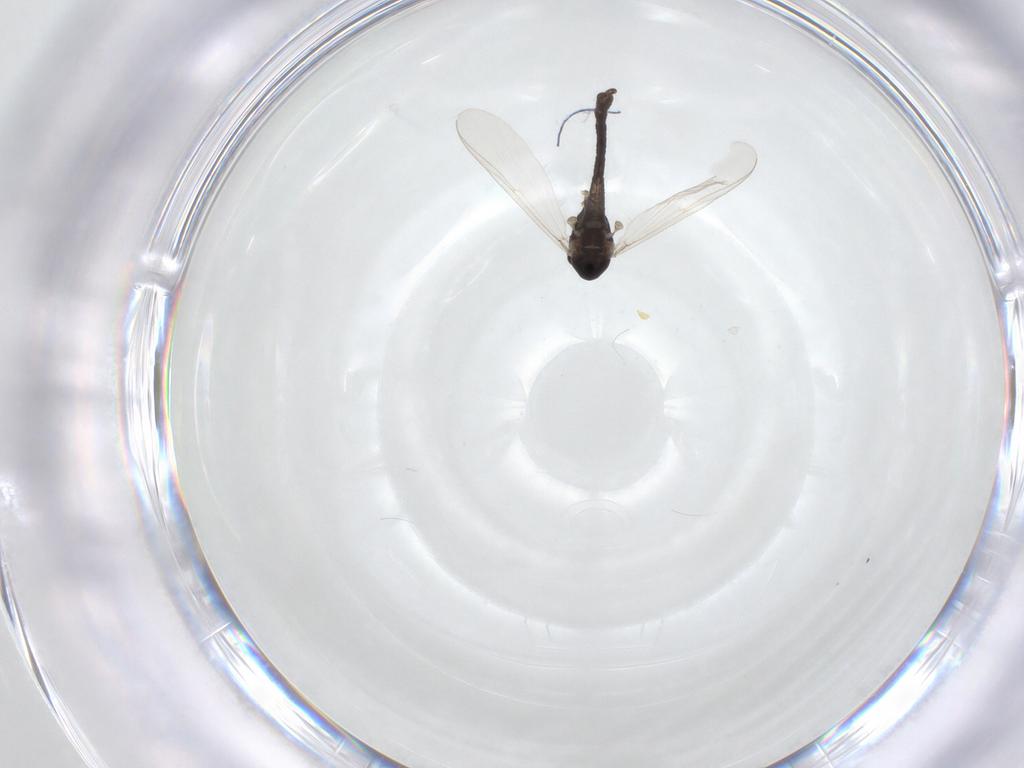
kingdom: Animalia
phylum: Arthropoda
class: Insecta
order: Diptera
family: Chironomidae
